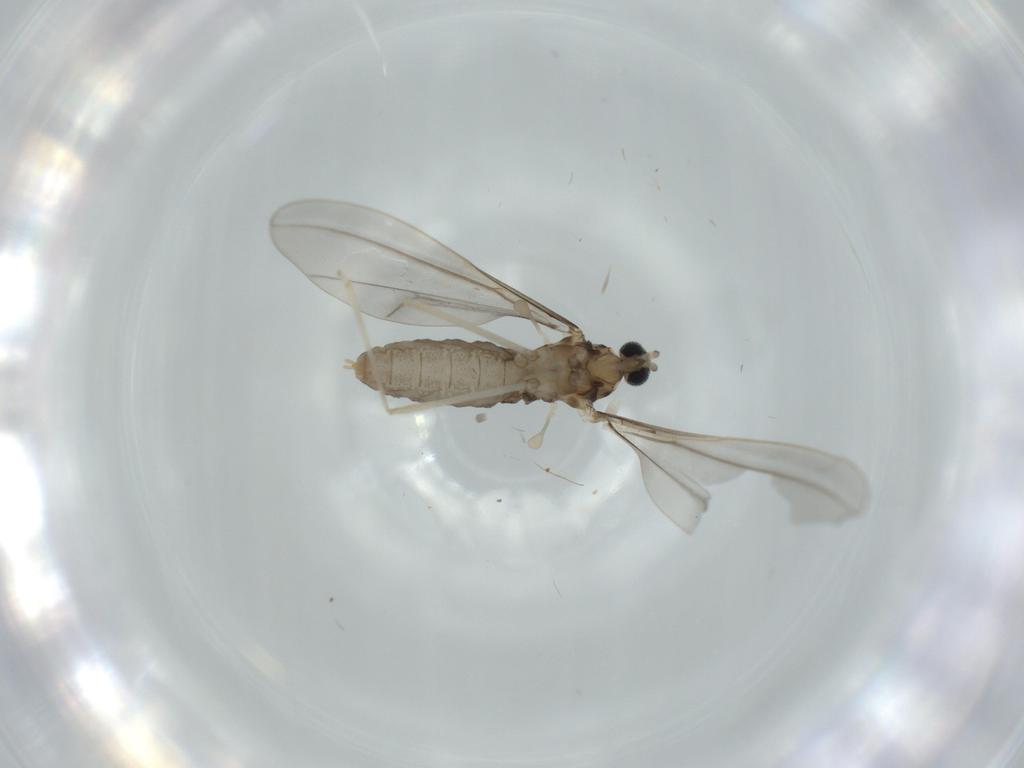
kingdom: Animalia
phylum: Arthropoda
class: Insecta
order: Diptera
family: Cecidomyiidae
